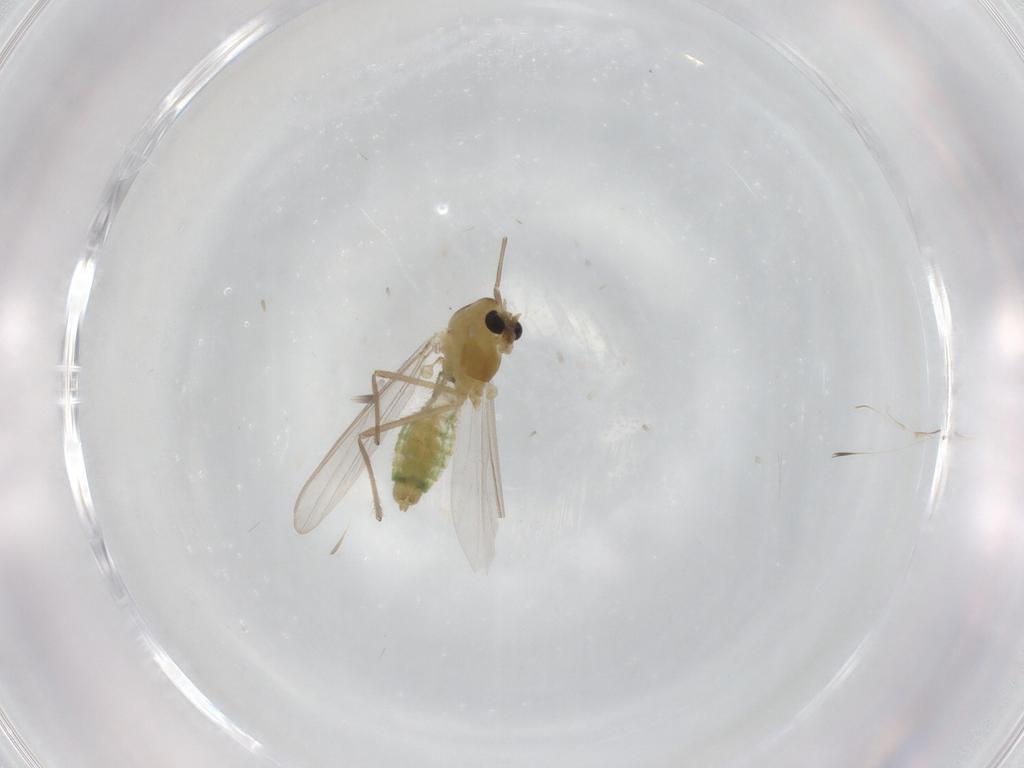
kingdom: Animalia
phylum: Arthropoda
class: Insecta
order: Diptera
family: Chironomidae
